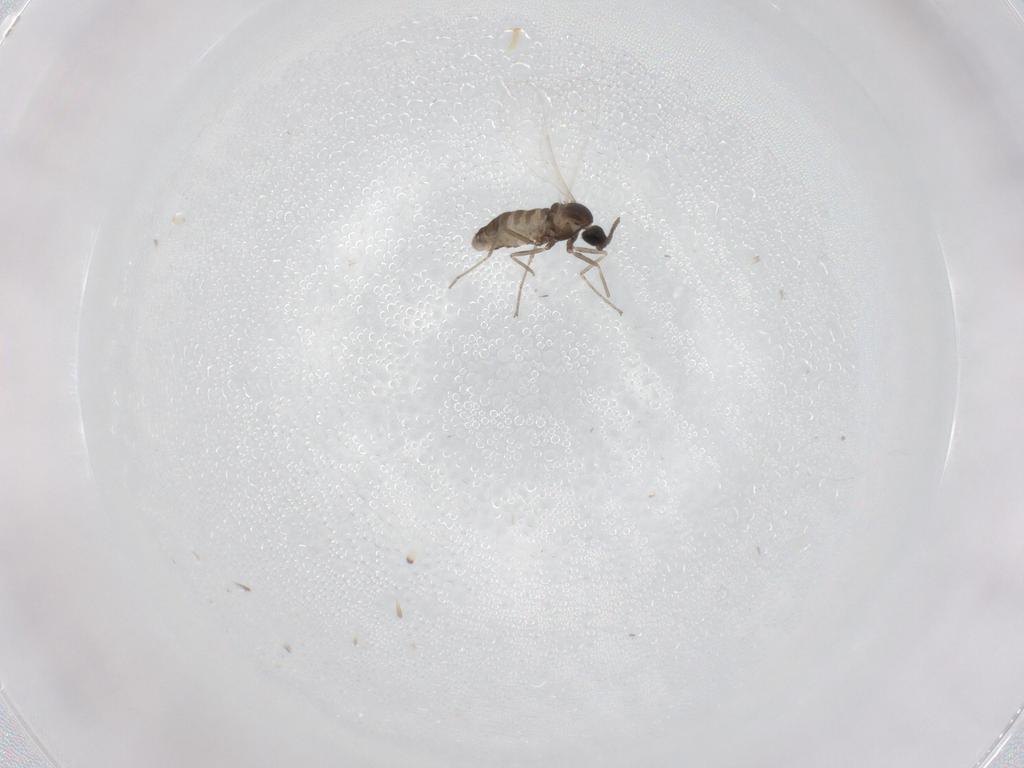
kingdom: Animalia
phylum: Arthropoda
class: Insecta
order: Diptera
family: Cecidomyiidae
